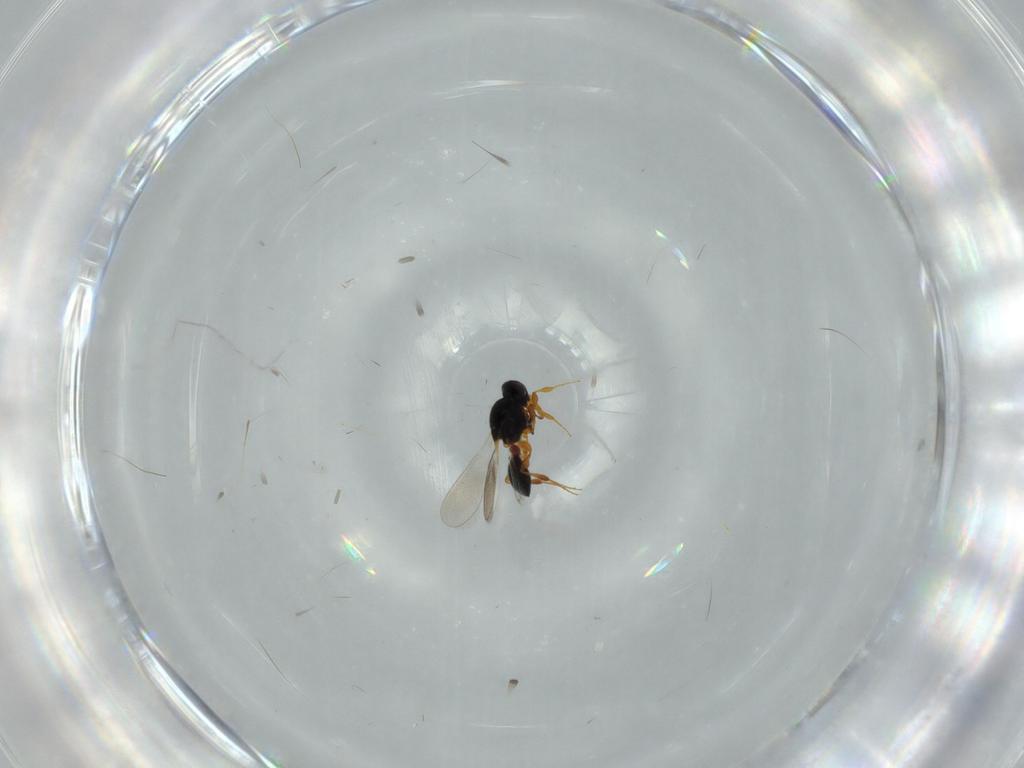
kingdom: Animalia
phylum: Arthropoda
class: Insecta
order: Hymenoptera
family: Platygastridae
